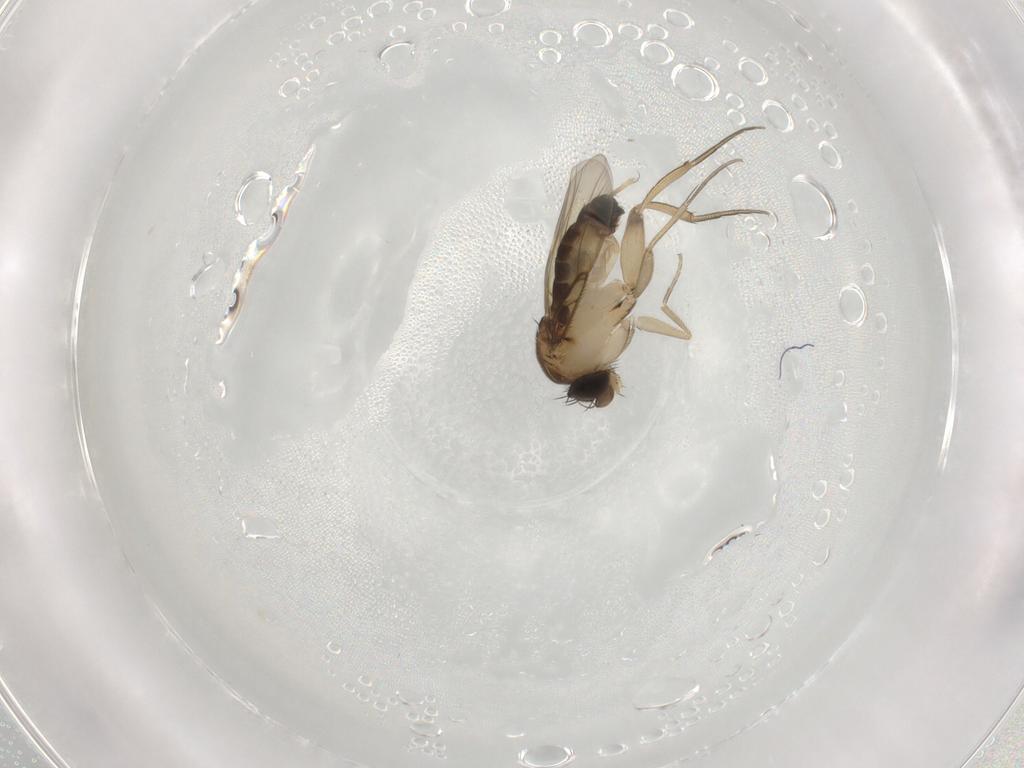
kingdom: Animalia
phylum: Arthropoda
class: Insecta
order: Diptera
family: Phoridae
